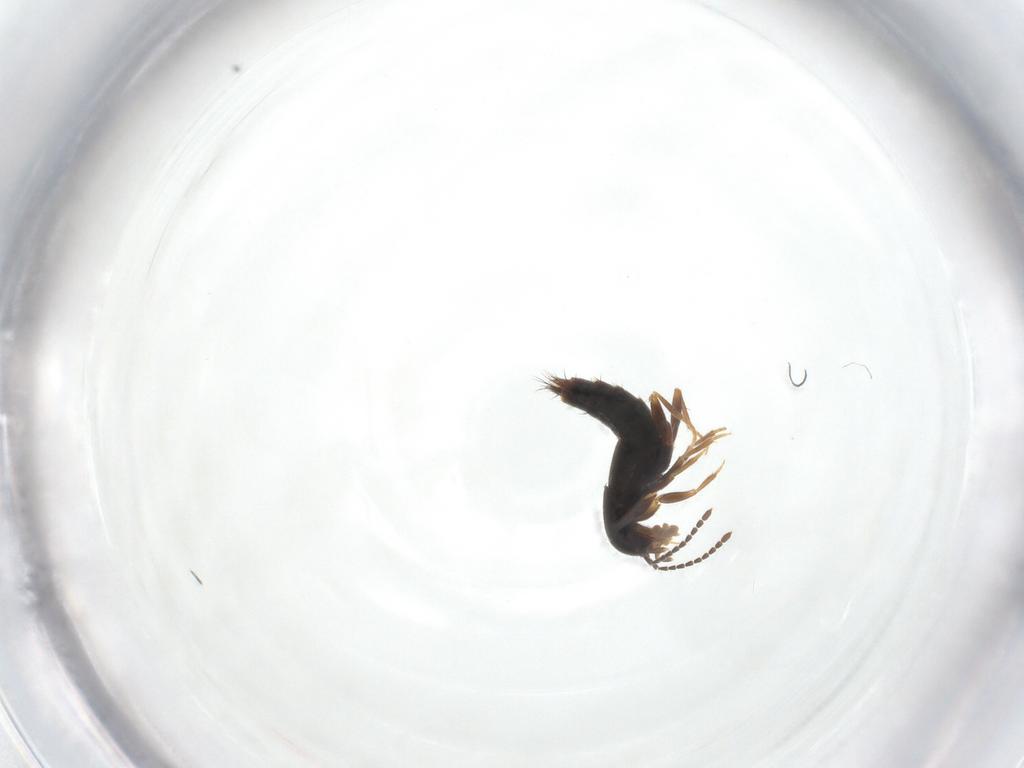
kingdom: Animalia
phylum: Arthropoda
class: Insecta
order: Coleoptera
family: Staphylinidae
